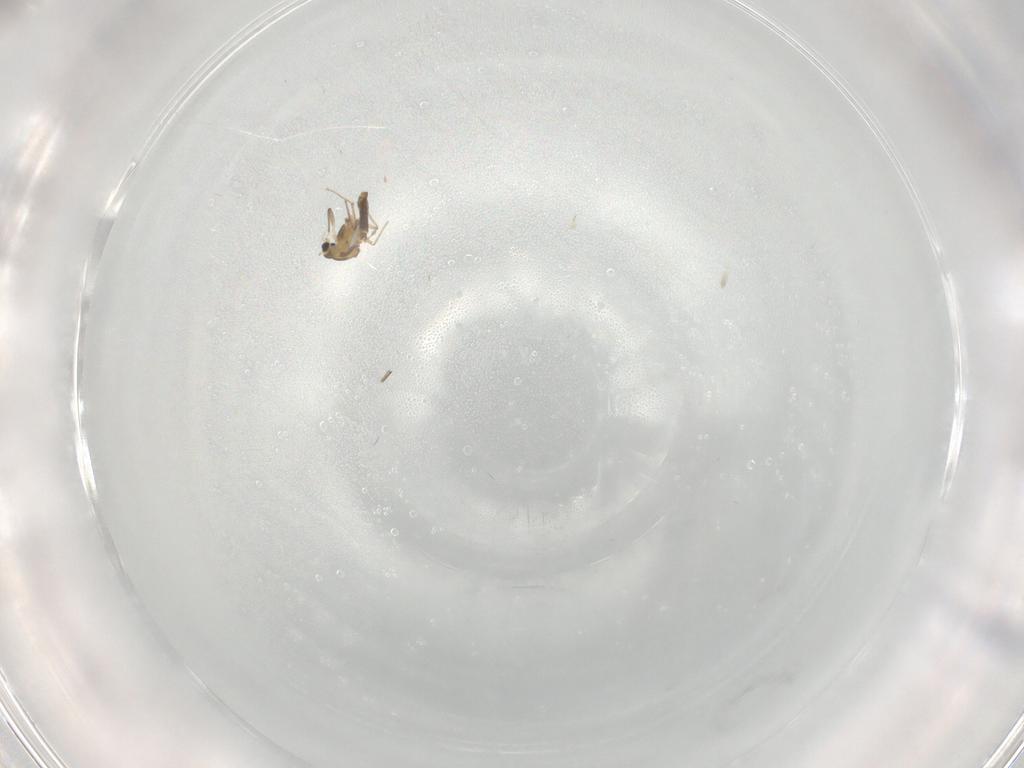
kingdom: Animalia
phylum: Arthropoda
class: Insecta
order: Diptera
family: Chironomidae
